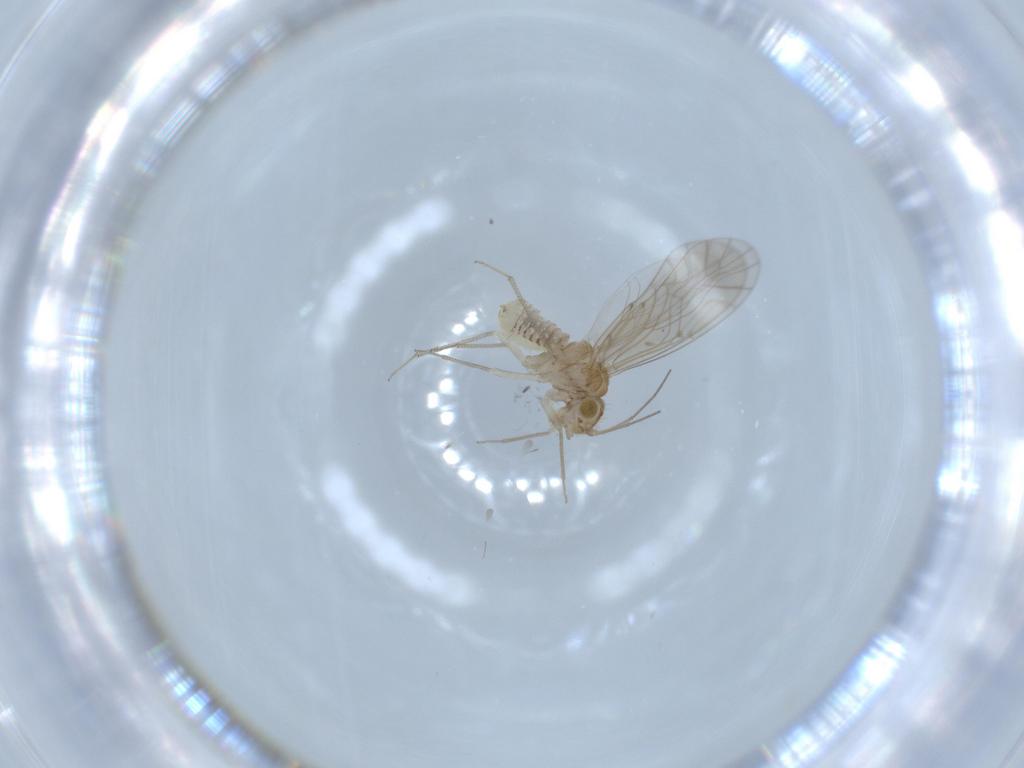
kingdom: Animalia
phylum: Arthropoda
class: Insecta
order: Psocodea
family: Lachesillidae
